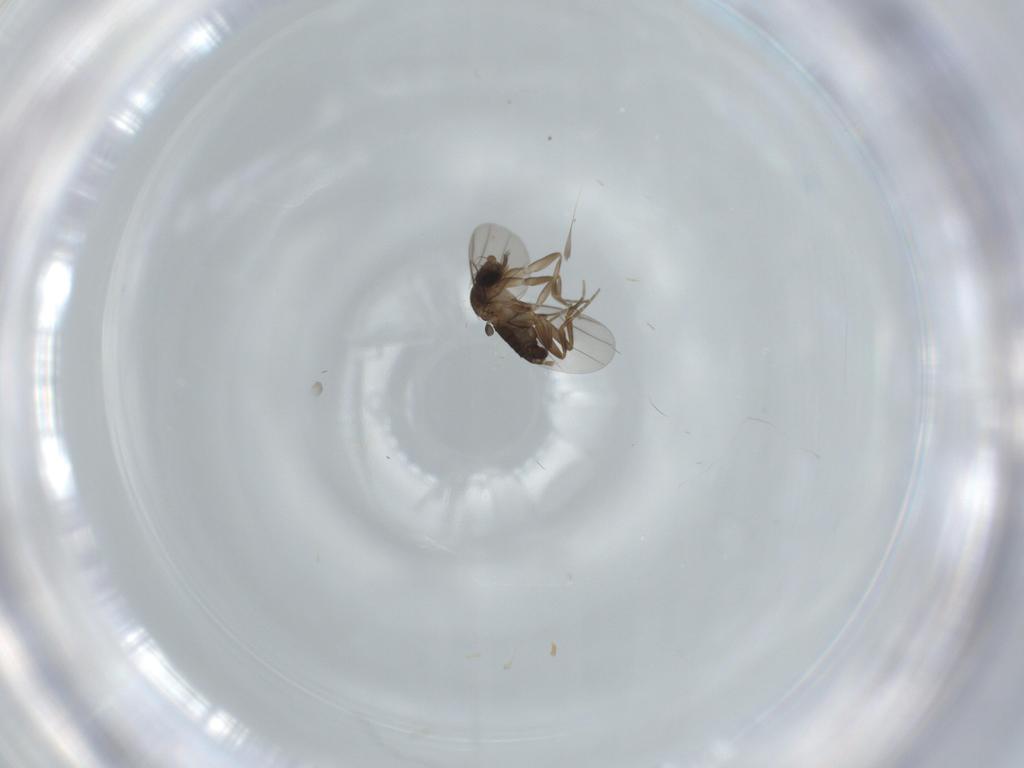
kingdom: Animalia
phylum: Arthropoda
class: Insecta
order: Diptera
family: Phoridae
